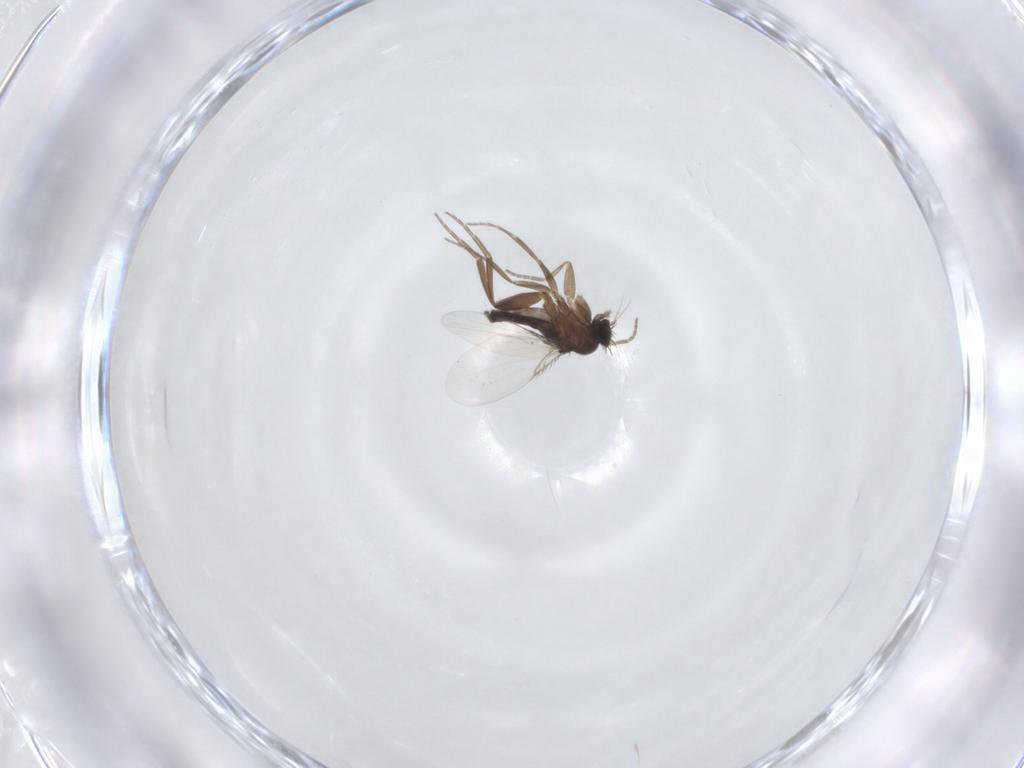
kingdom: Animalia
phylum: Arthropoda
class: Insecta
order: Diptera
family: Phoridae
